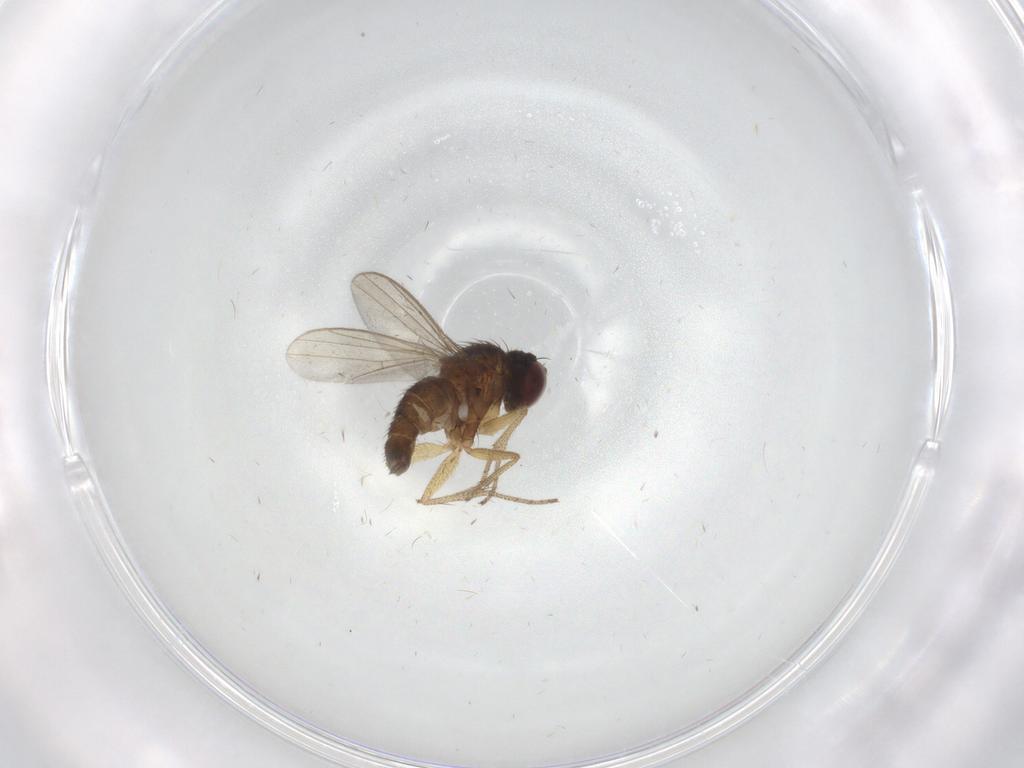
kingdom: Animalia
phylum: Arthropoda
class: Insecta
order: Diptera
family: Dolichopodidae
